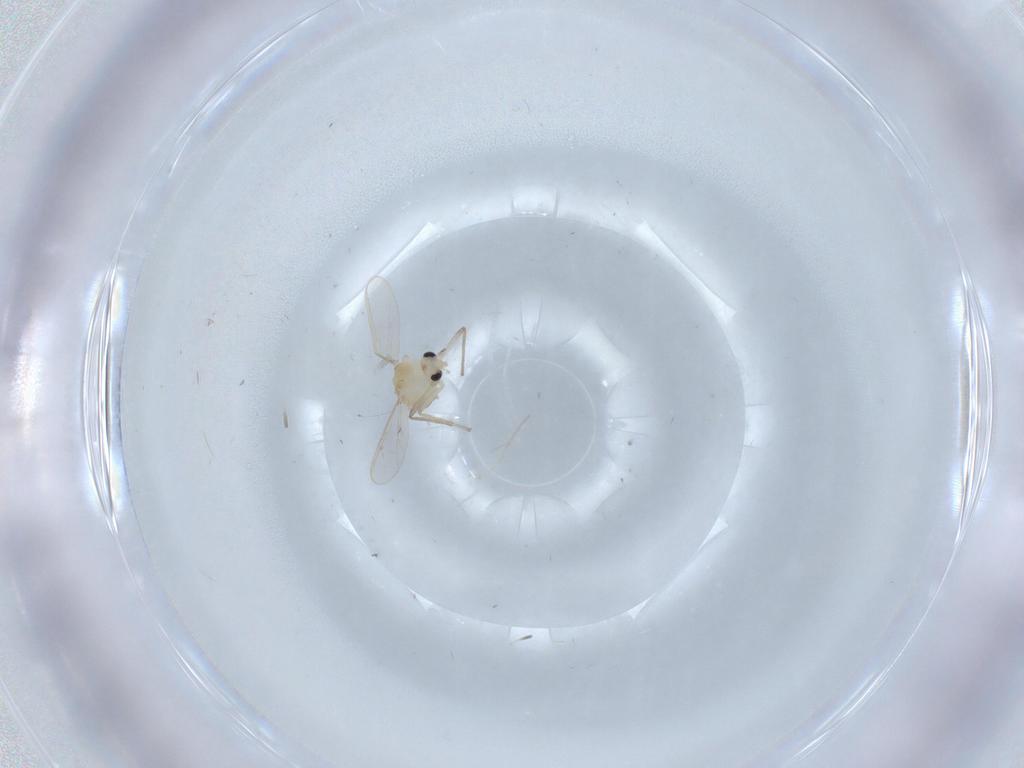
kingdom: Animalia
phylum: Arthropoda
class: Insecta
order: Diptera
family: Chironomidae
